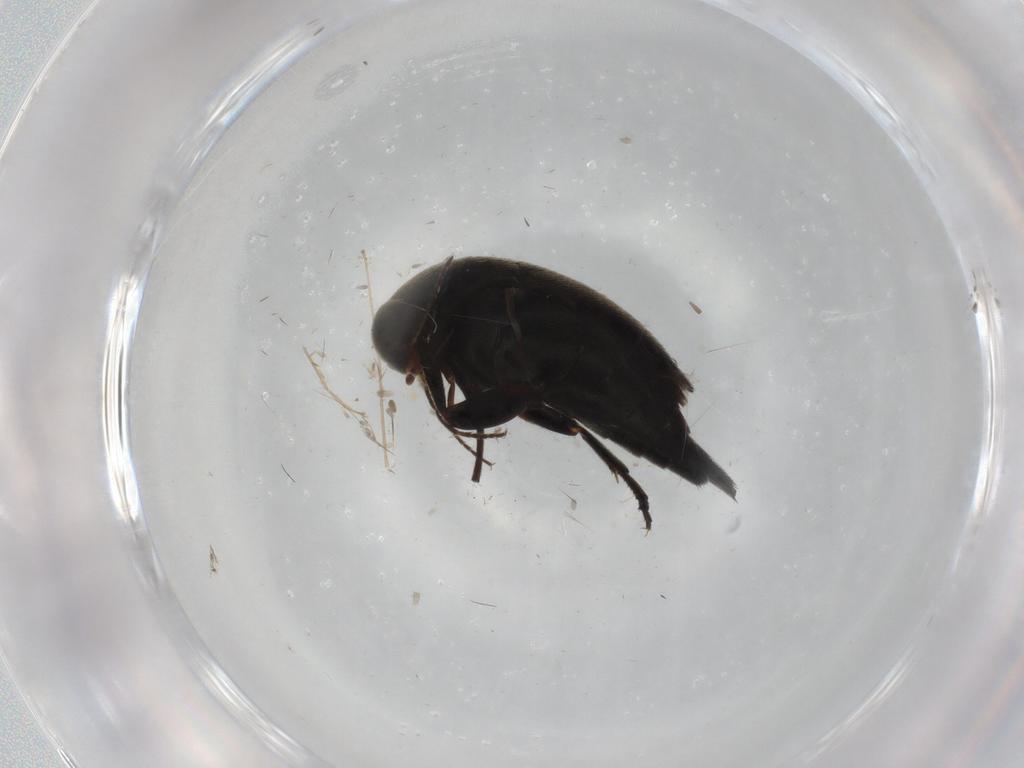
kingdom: Animalia
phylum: Arthropoda
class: Insecta
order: Coleoptera
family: Mordellidae
